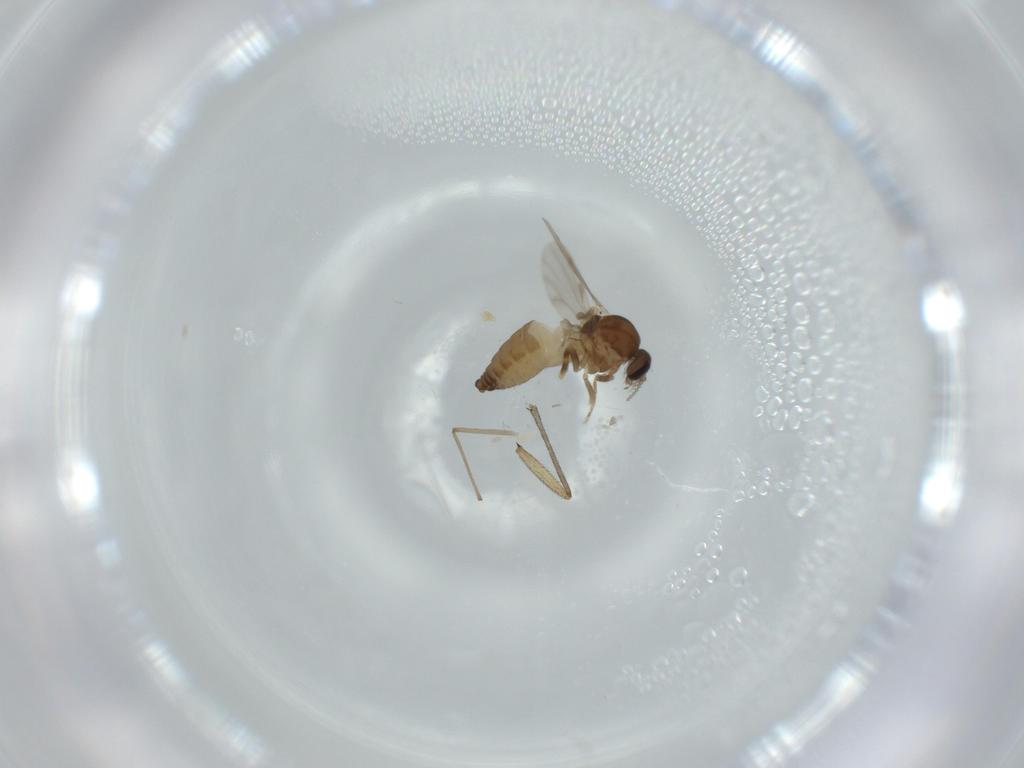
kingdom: Animalia
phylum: Arthropoda
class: Insecta
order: Diptera
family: Ceratopogonidae
